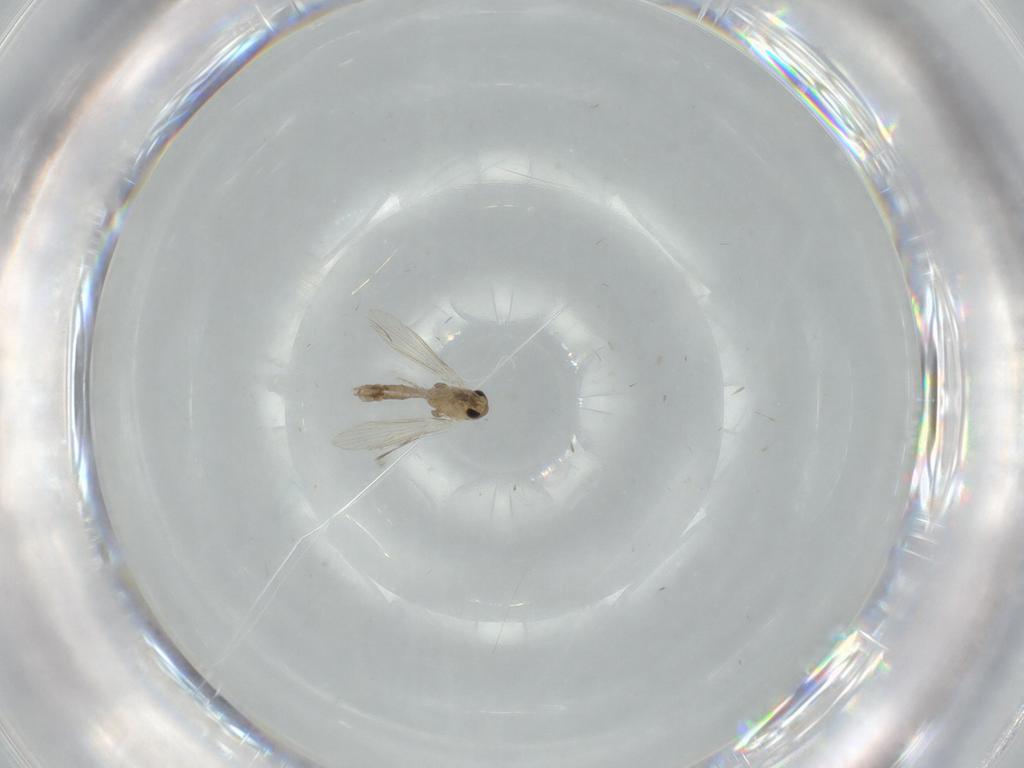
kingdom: Animalia
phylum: Arthropoda
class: Insecta
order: Diptera
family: Psychodidae
